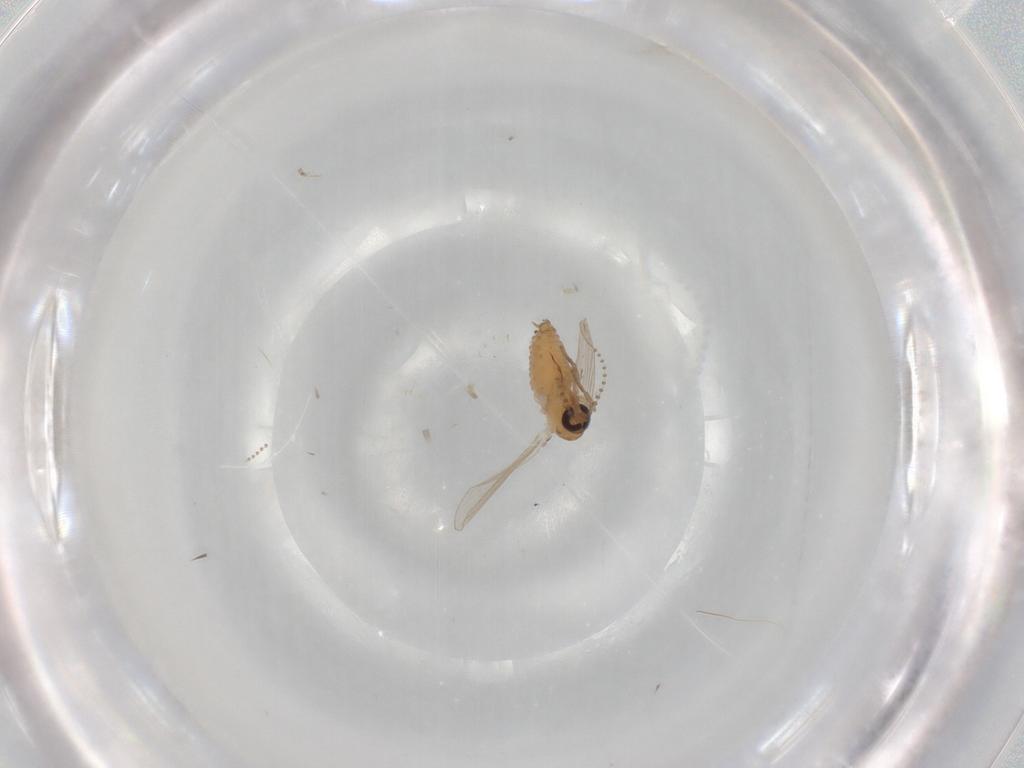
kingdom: Animalia
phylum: Arthropoda
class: Insecta
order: Diptera
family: Psychodidae
